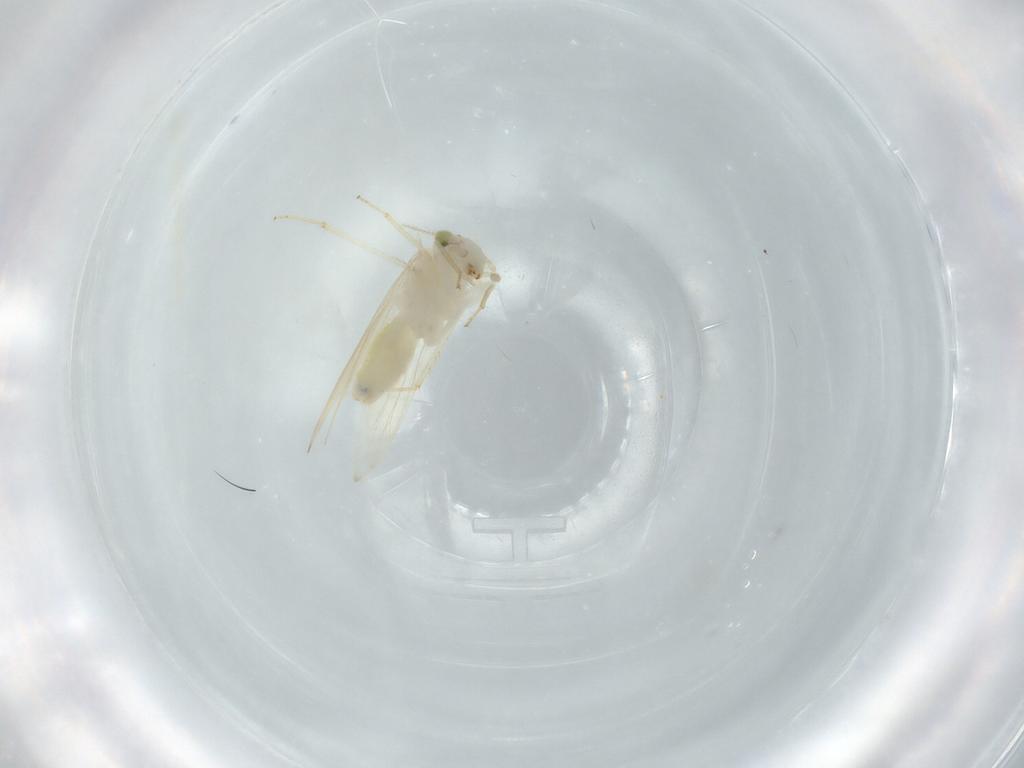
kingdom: Animalia
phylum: Arthropoda
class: Insecta
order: Psocodea
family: Lepidopsocidae
